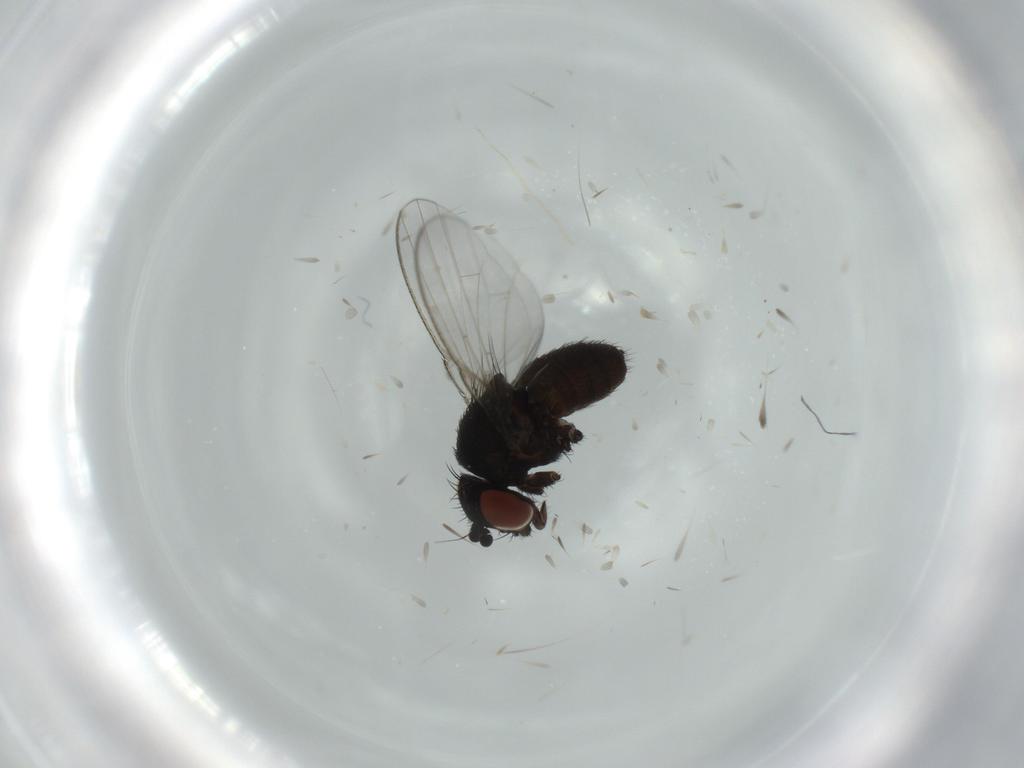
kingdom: Animalia
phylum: Arthropoda
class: Insecta
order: Diptera
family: Milichiidae
